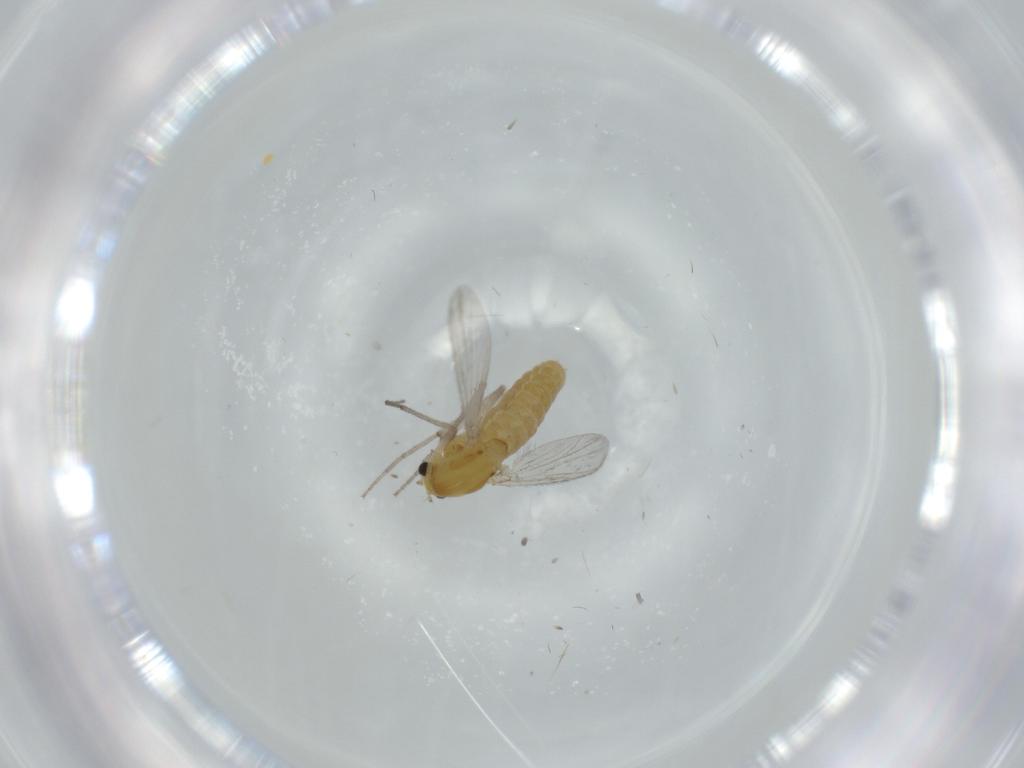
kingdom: Animalia
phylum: Arthropoda
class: Insecta
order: Diptera
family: Chironomidae
